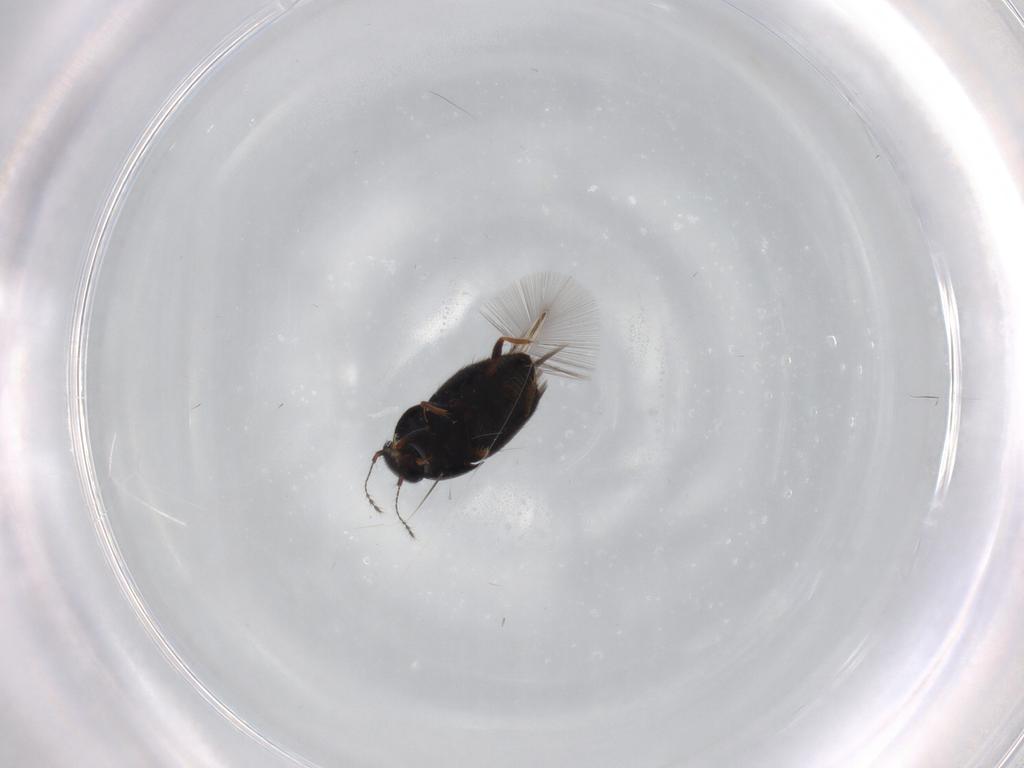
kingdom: Animalia
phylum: Arthropoda
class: Insecta
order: Coleoptera
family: Ptiliidae
